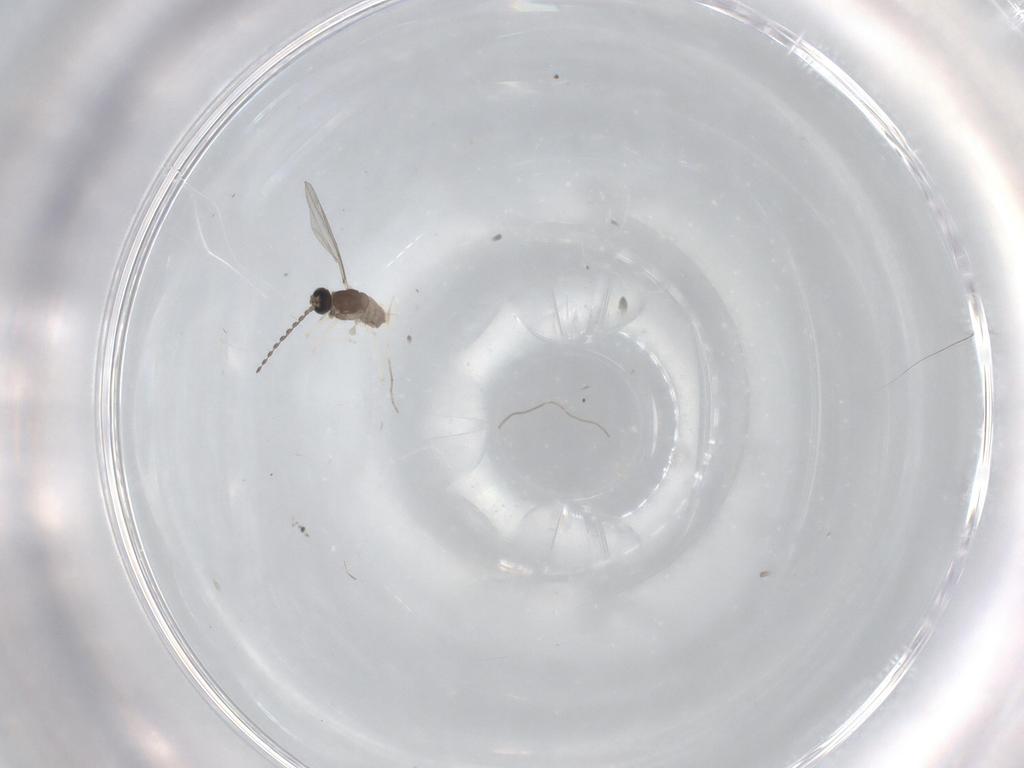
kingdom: Animalia
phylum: Arthropoda
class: Insecta
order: Diptera
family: Cecidomyiidae
